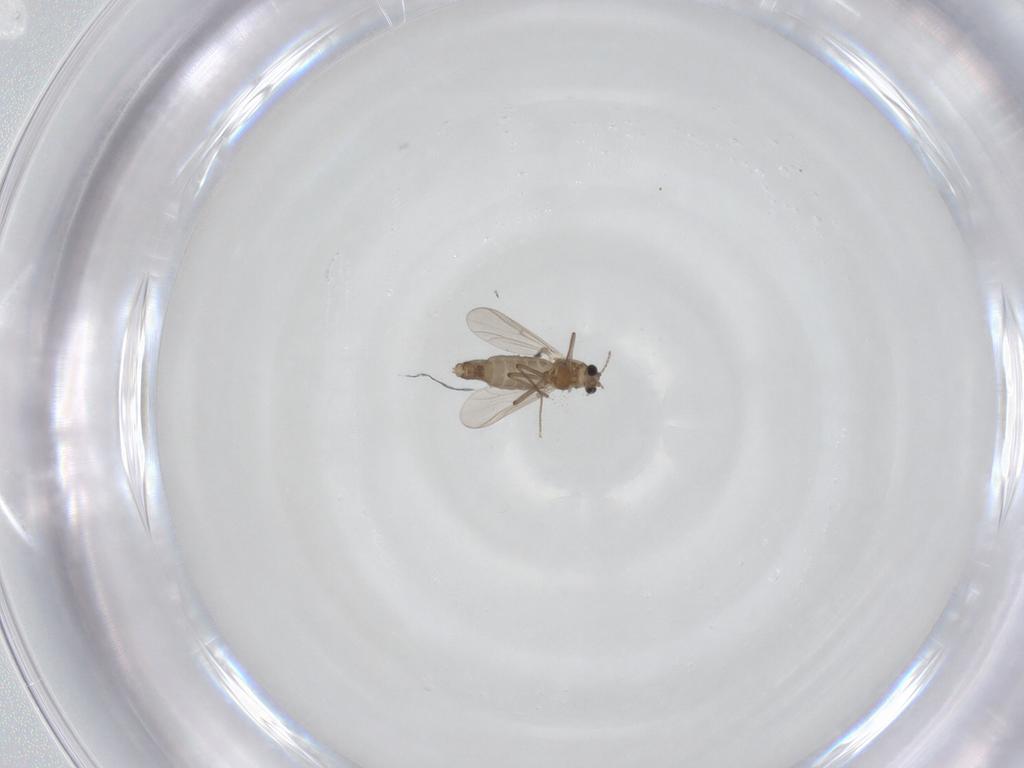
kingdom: Animalia
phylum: Arthropoda
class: Insecta
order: Diptera
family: Chironomidae
